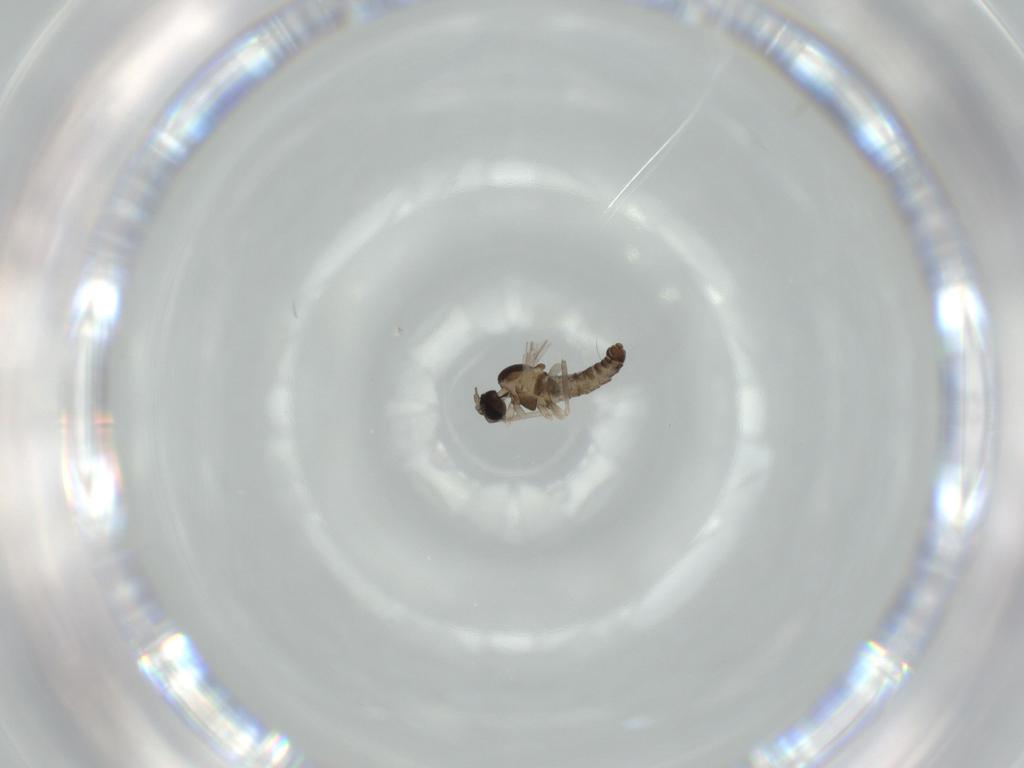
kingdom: Animalia
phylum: Arthropoda
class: Insecta
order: Diptera
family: Cecidomyiidae
